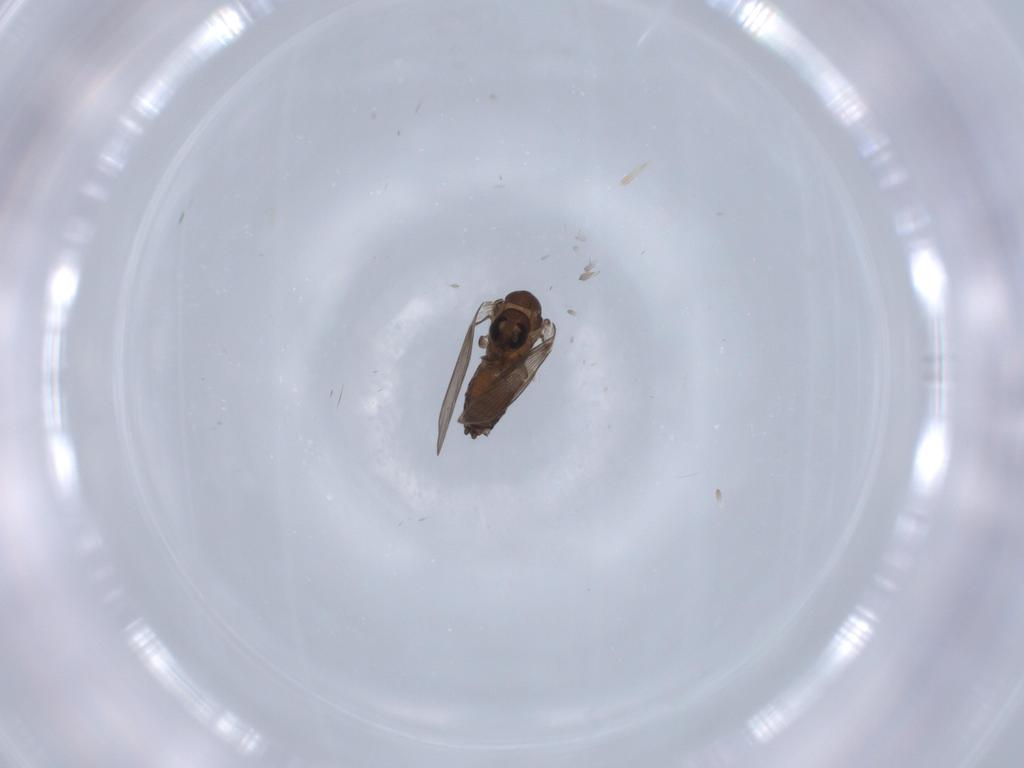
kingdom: Animalia
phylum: Arthropoda
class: Insecta
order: Diptera
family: Psychodidae
